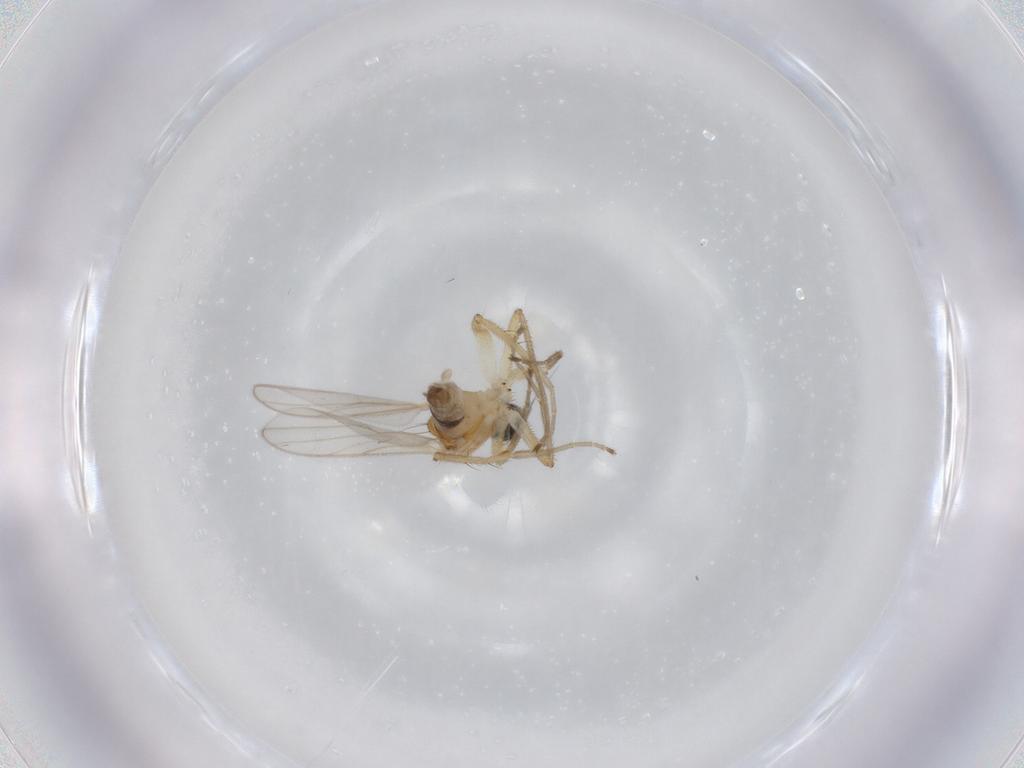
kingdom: Animalia
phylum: Arthropoda
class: Insecta
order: Diptera
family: Hybotidae
